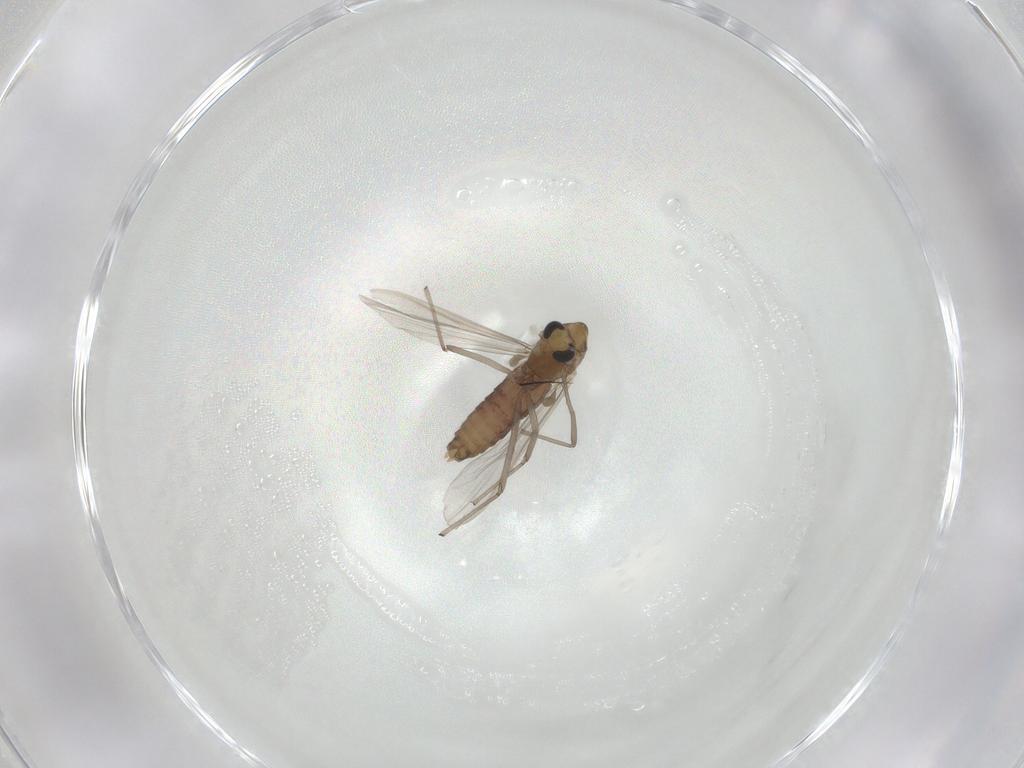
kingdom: Animalia
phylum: Arthropoda
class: Insecta
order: Diptera
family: Chironomidae
